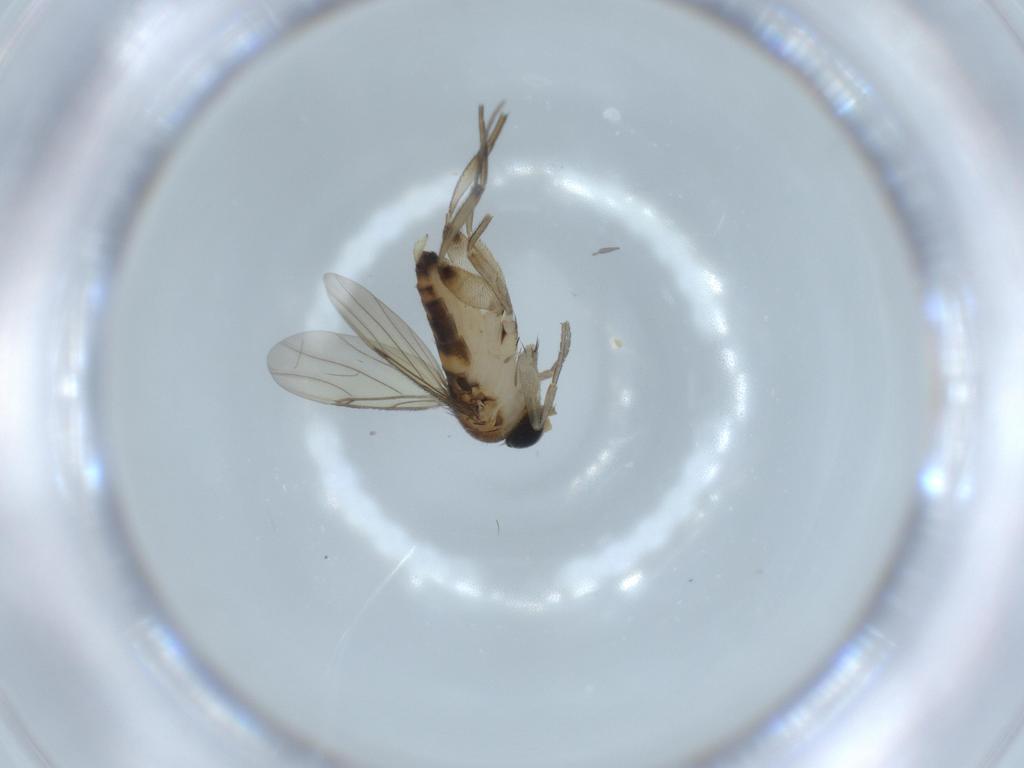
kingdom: Animalia
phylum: Arthropoda
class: Insecta
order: Diptera
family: Phoridae
